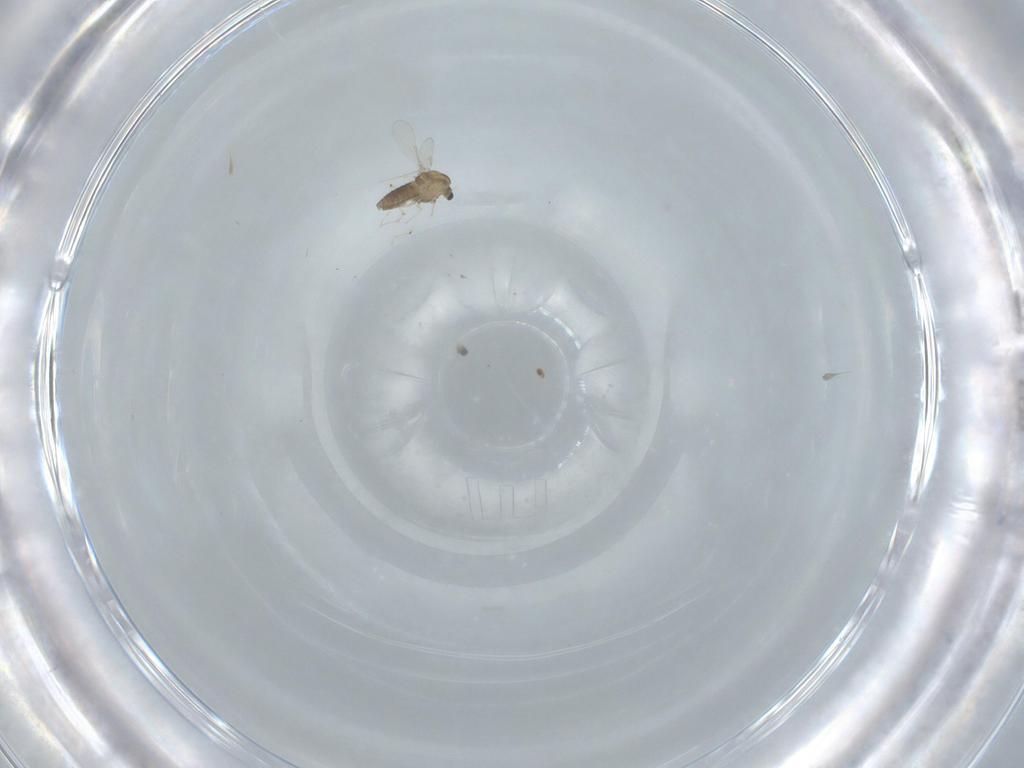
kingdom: Animalia
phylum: Arthropoda
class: Insecta
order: Diptera
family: Chironomidae
